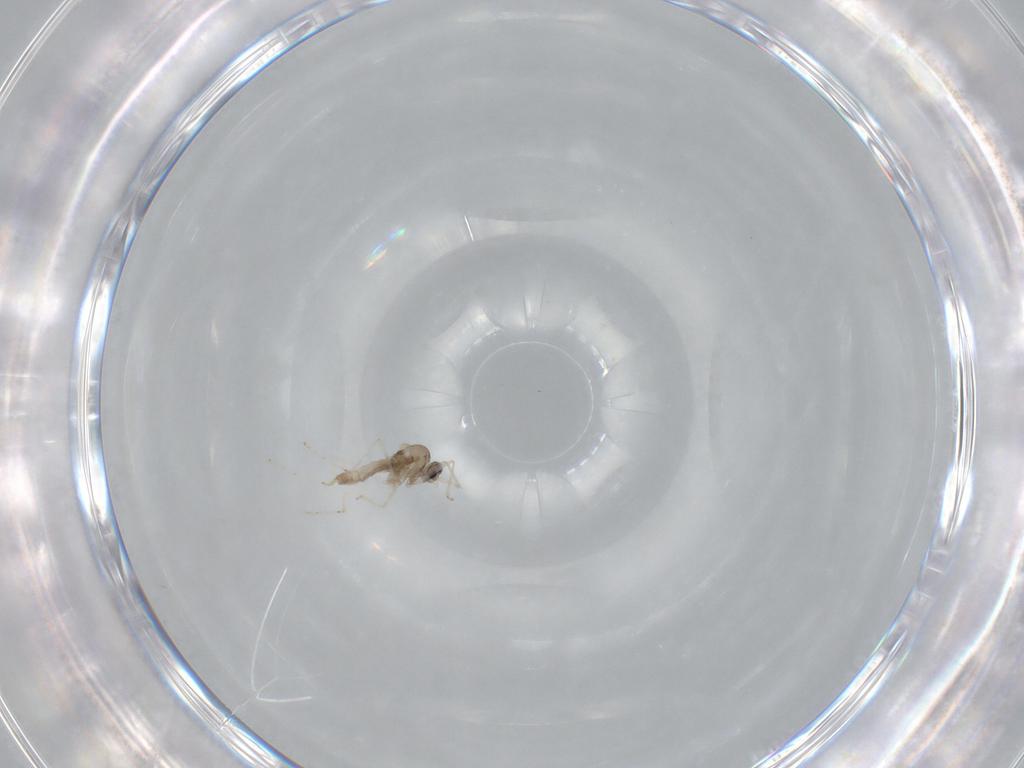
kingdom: Animalia
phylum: Arthropoda
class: Insecta
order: Diptera
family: Cecidomyiidae
